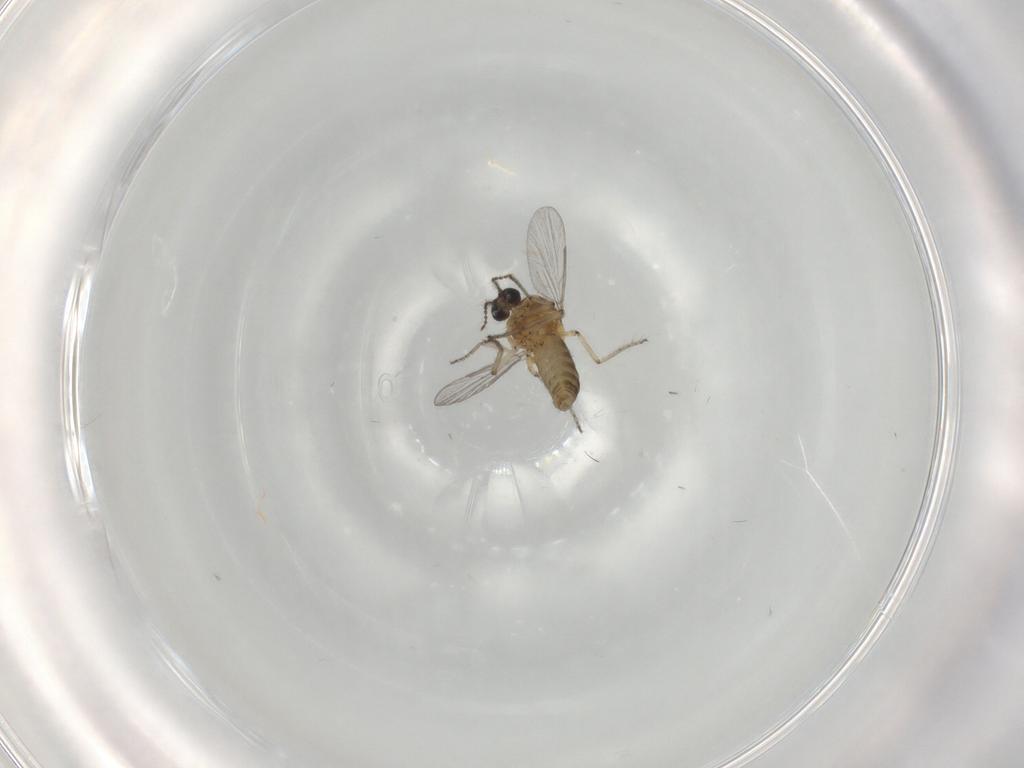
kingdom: Animalia
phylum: Arthropoda
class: Insecta
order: Diptera
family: Ceratopogonidae
